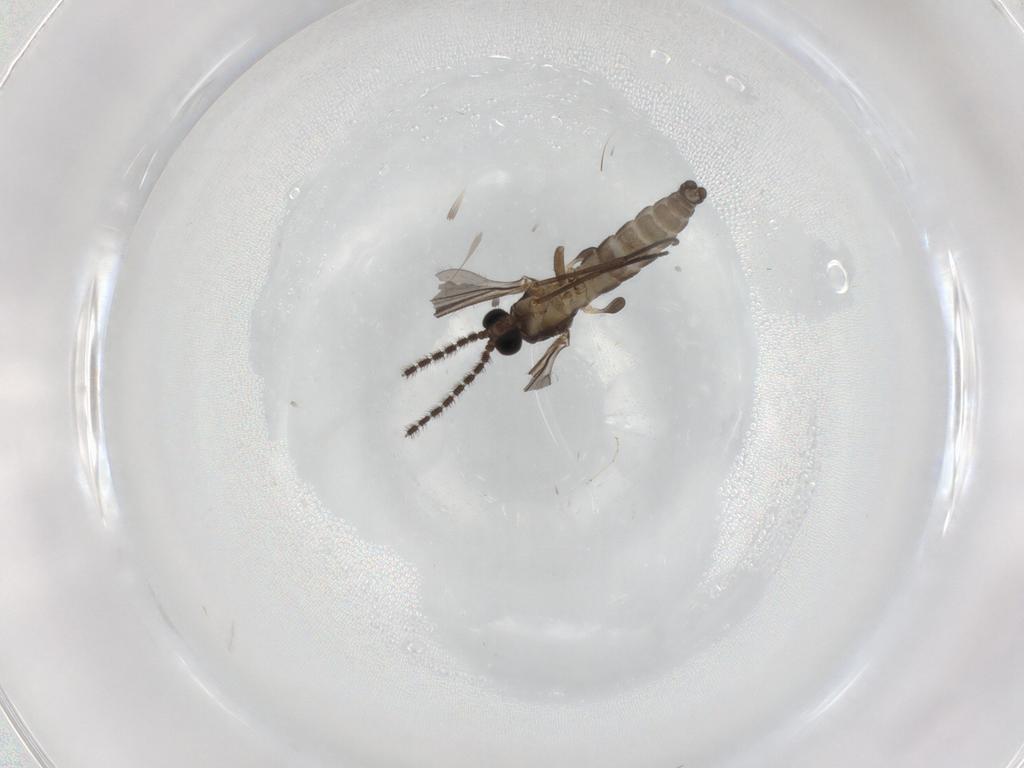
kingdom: Animalia
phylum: Arthropoda
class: Insecta
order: Diptera
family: Sciaridae
